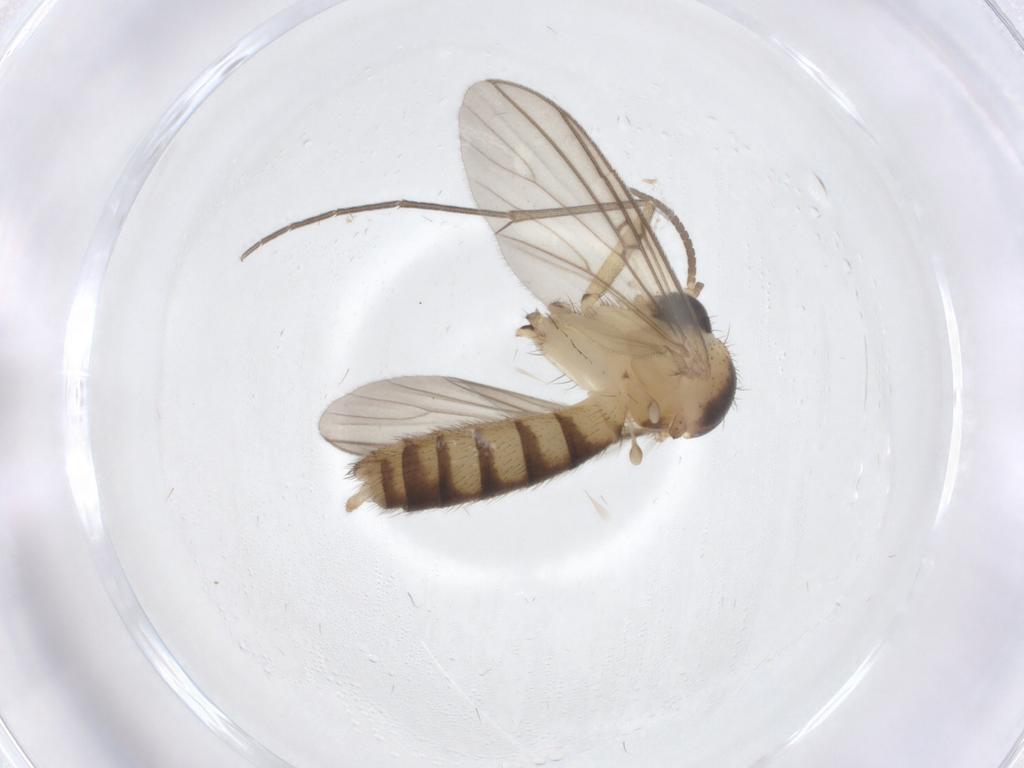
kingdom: Animalia
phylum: Arthropoda
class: Insecta
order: Diptera
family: Mycetophilidae
